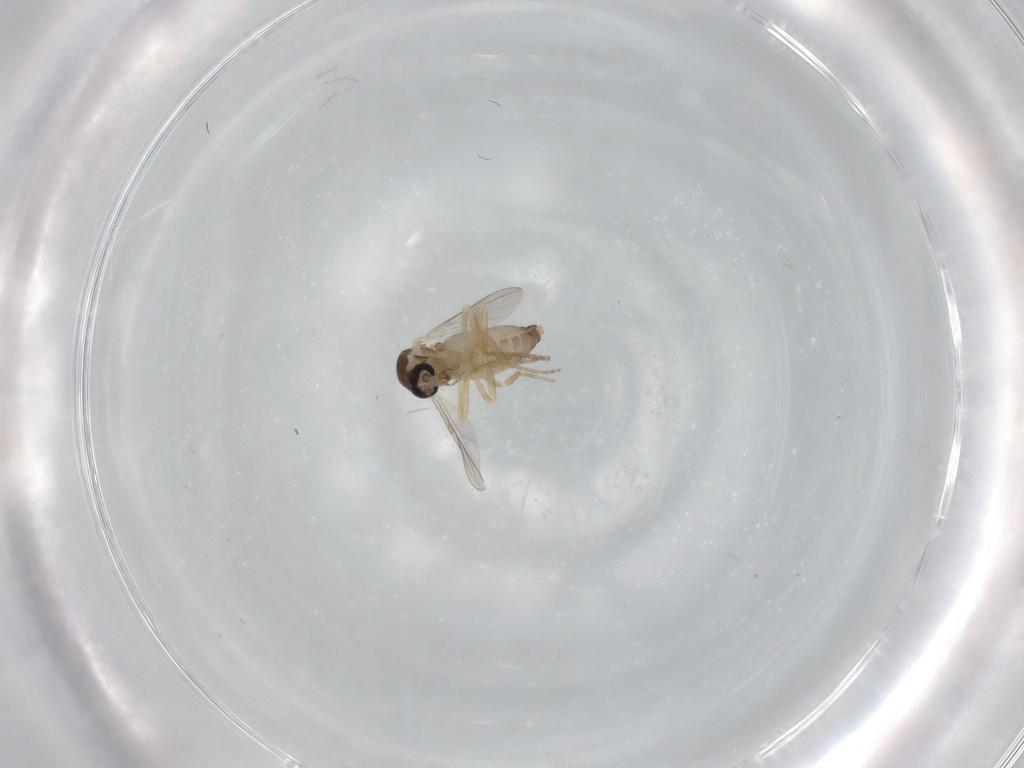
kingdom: Animalia
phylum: Arthropoda
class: Insecta
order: Diptera
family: Ceratopogonidae
